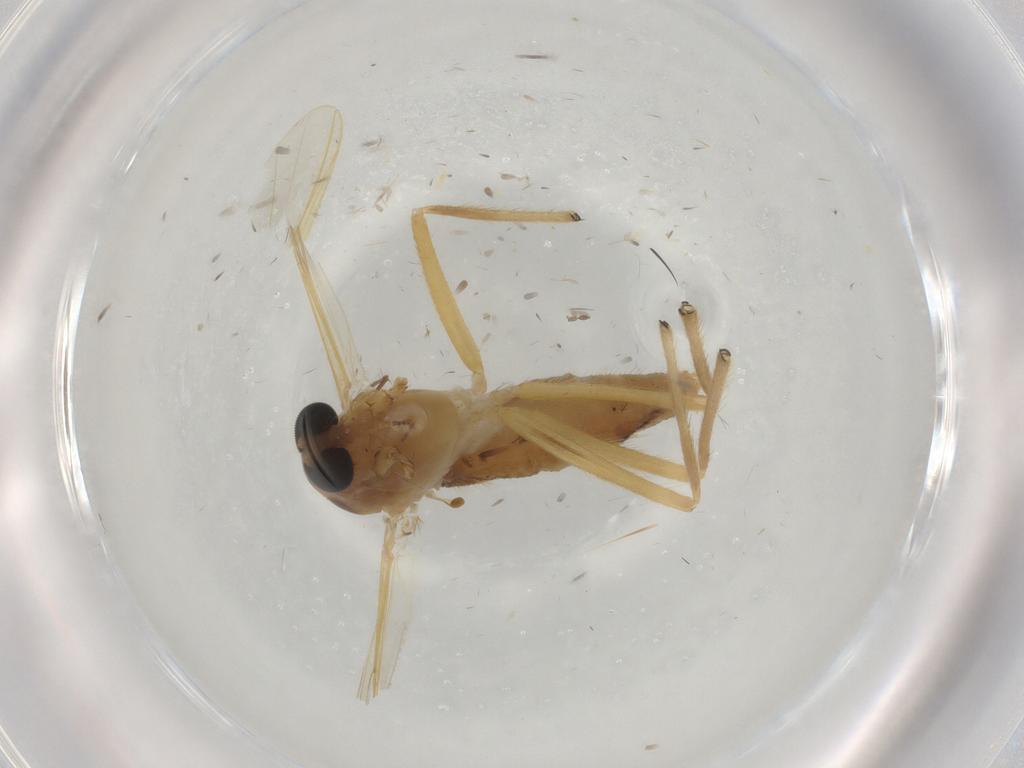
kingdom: Animalia
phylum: Arthropoda
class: Insecta
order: Diptera
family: Chironomidae
